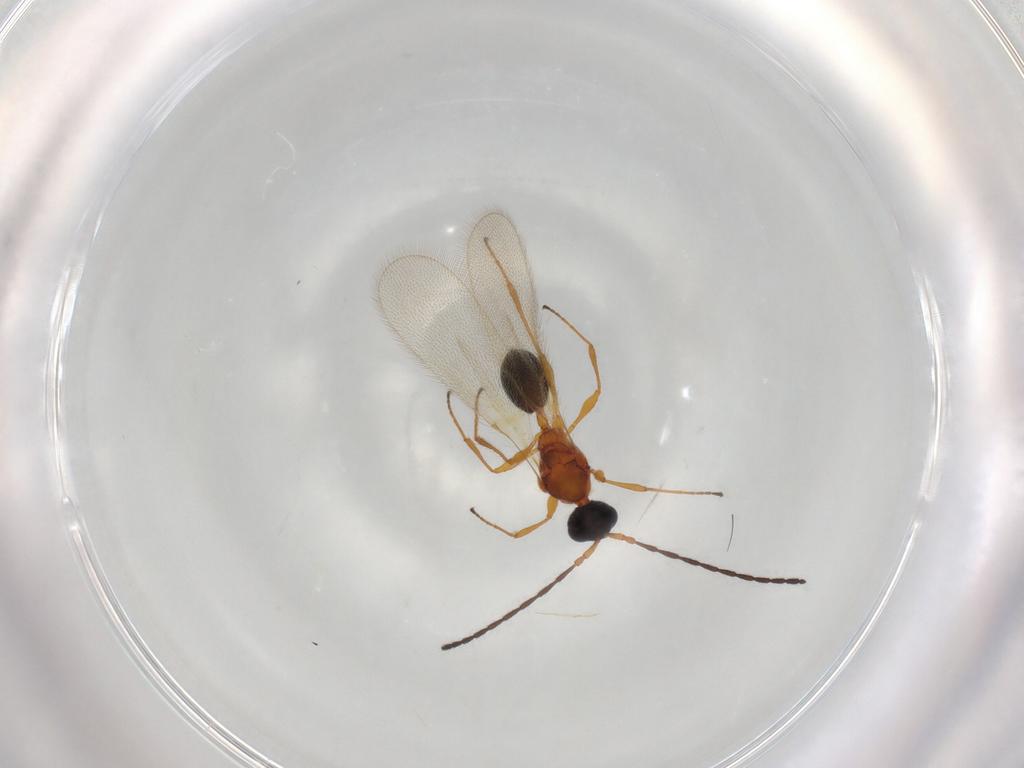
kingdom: Animalia
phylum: Arthropoda
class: Insecta
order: Hymenoptera
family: Diapriidae
